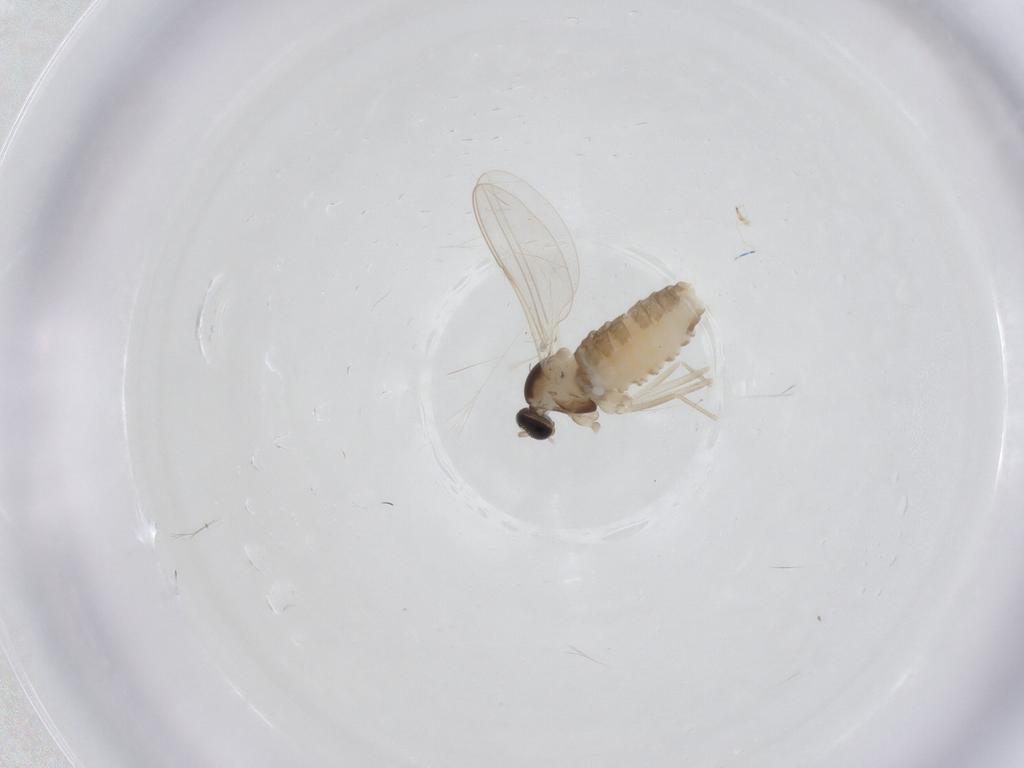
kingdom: Animalia
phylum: Arthropoda
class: Insecta
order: Diptera
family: Cecidomyiidae
